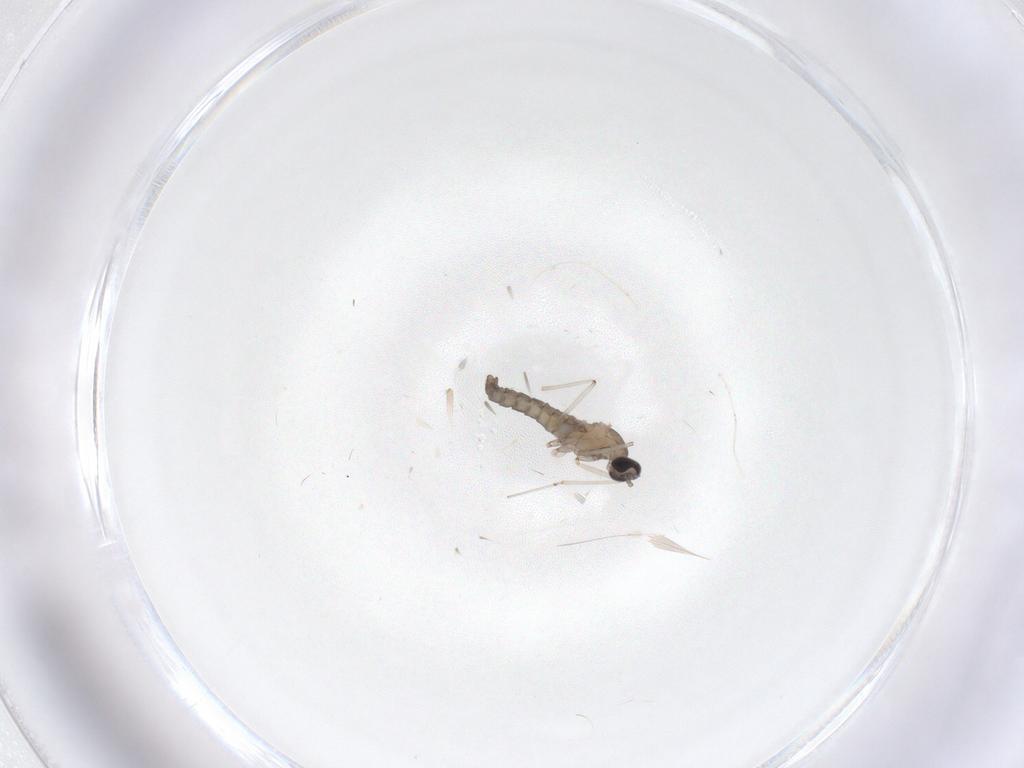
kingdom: Animalia
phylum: Arthropoda
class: Insecta
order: Diptera
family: Cecidomyiidae
